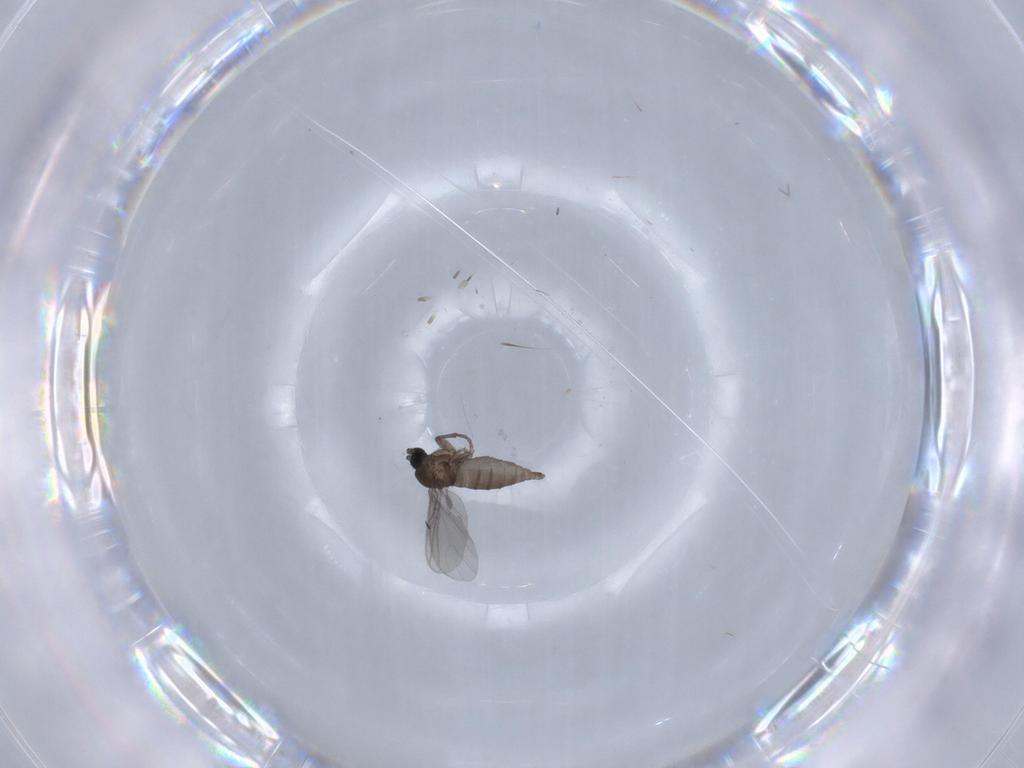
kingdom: Animalia
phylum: Arthropoda
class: Insecta
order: Diptera
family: Sciaridae
